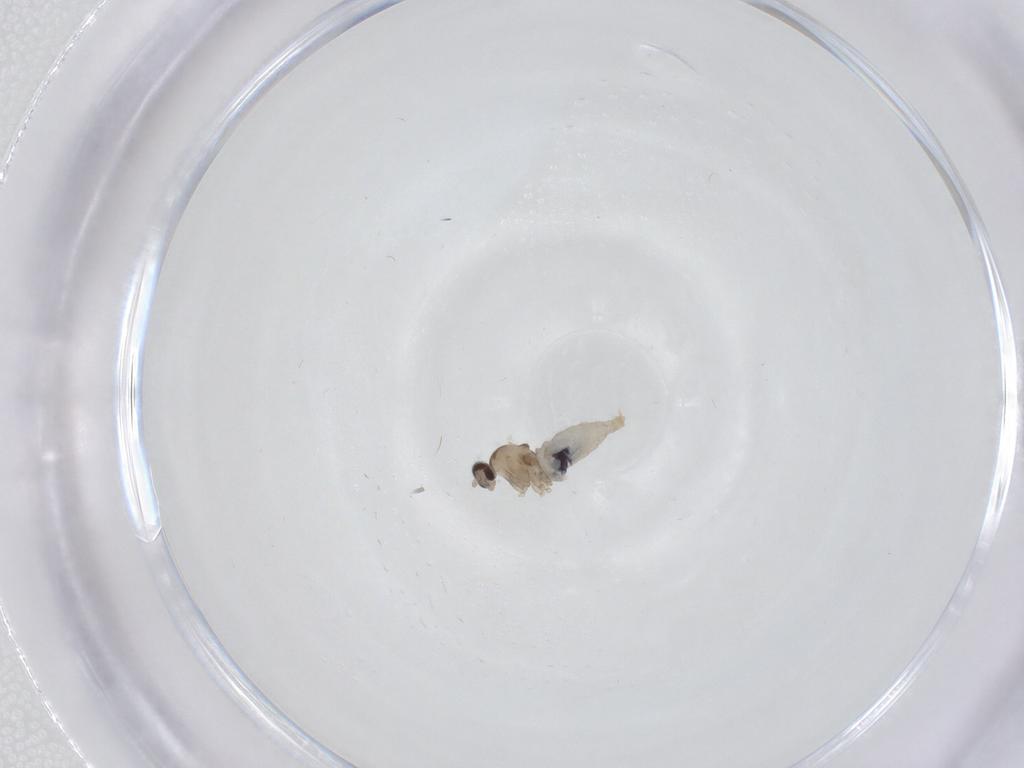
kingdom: Animalia
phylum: Arthropoda
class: Insecta
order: Diptera
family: Cecidomyiidae
